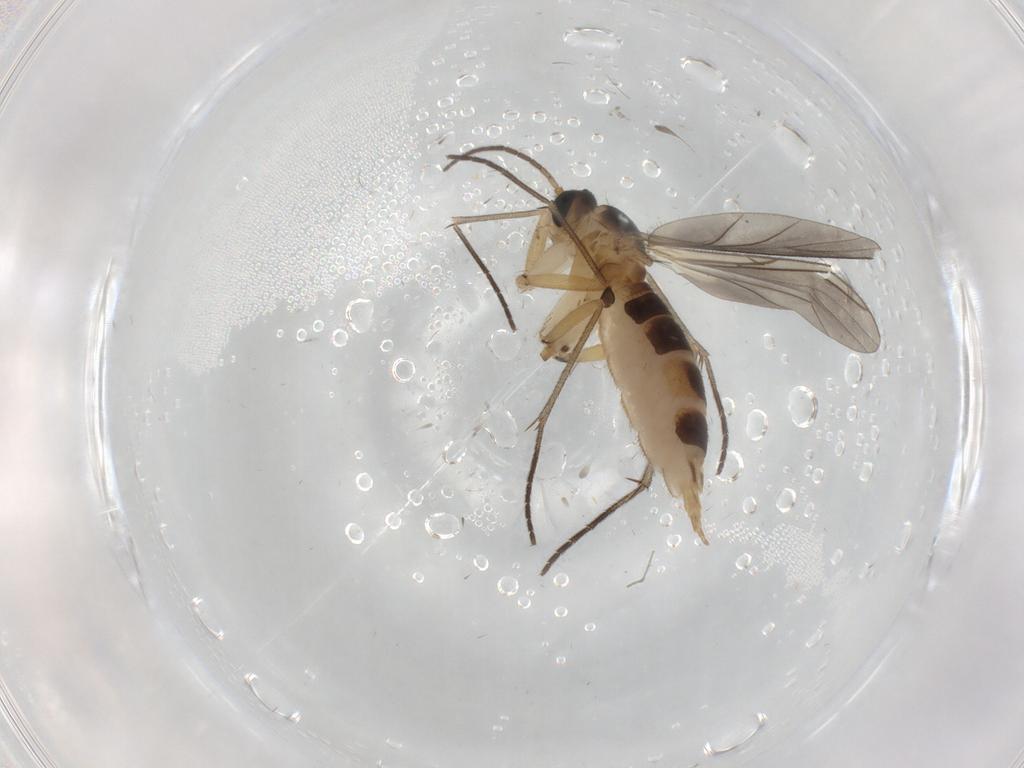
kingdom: Animalia
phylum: Arthropoda
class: Insecta
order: Diptera
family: Sciaridae
